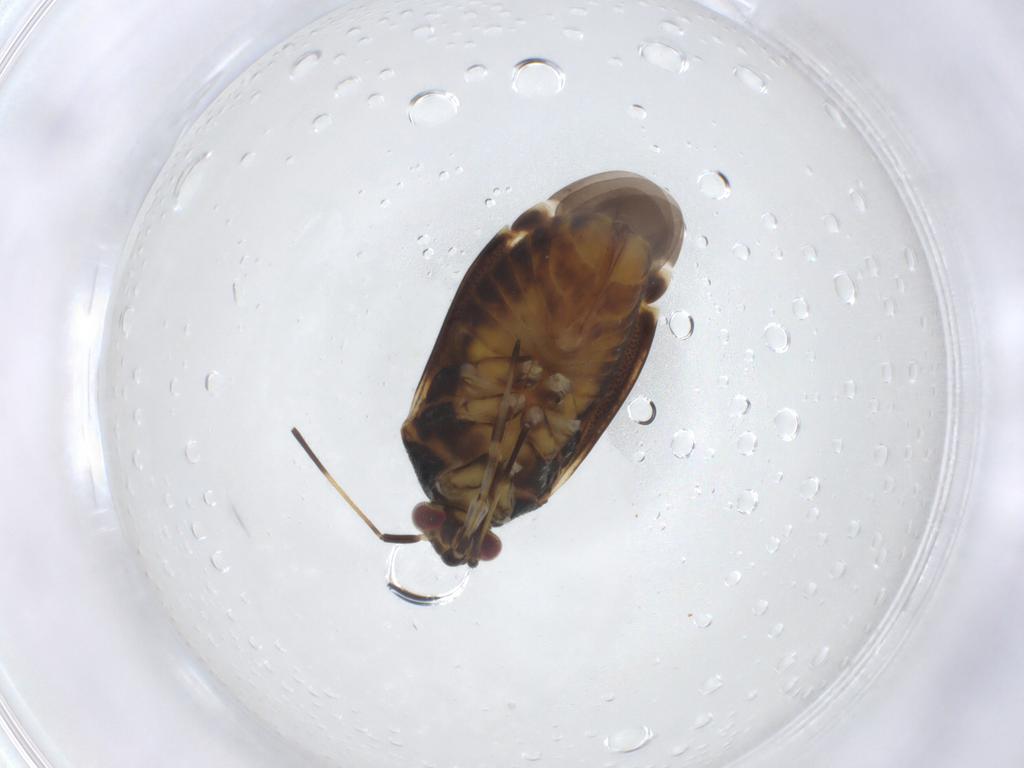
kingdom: Animalia
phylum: Arthropoda
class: Insecta
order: Hemiptera
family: Miridae
